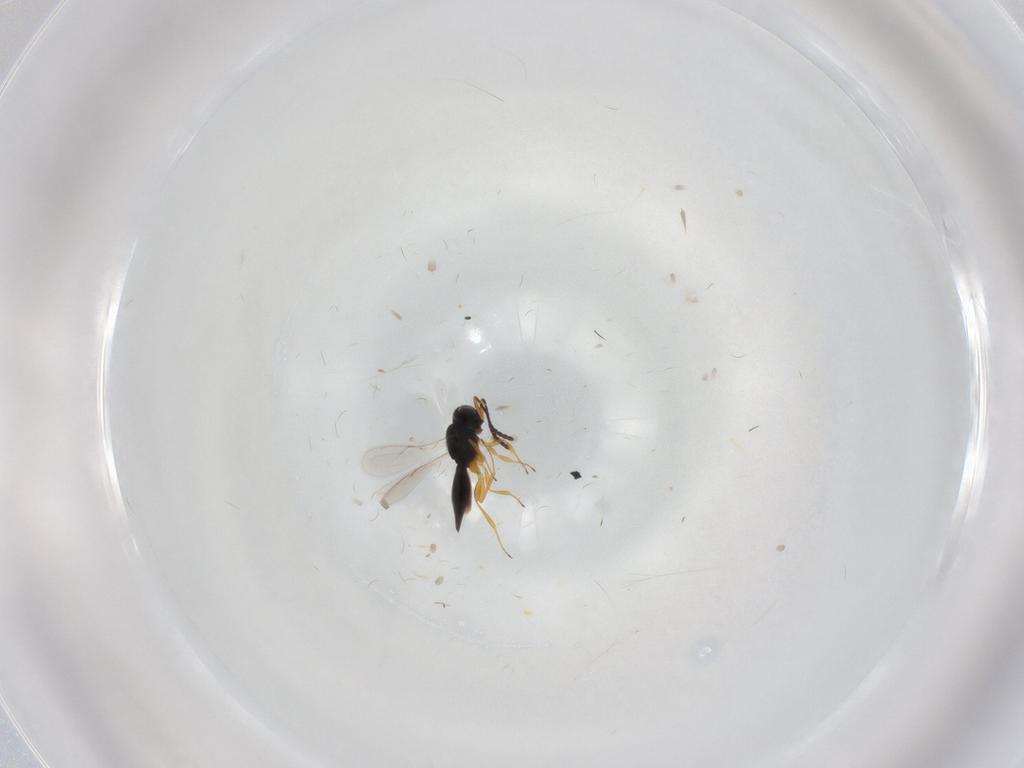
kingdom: Animalia
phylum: Arthropoda
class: Insecta
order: Hymenoptera
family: Scelionidae
